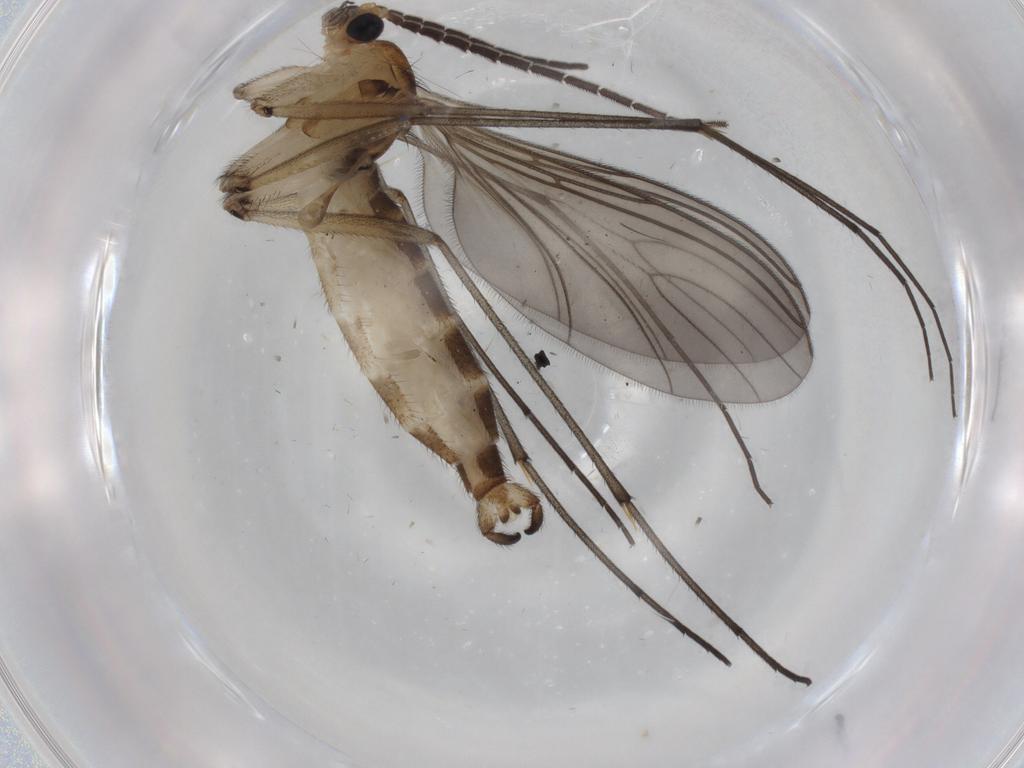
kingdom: Animalia
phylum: Arthropoda
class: Insecta
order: Diptera
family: Sciaridae
